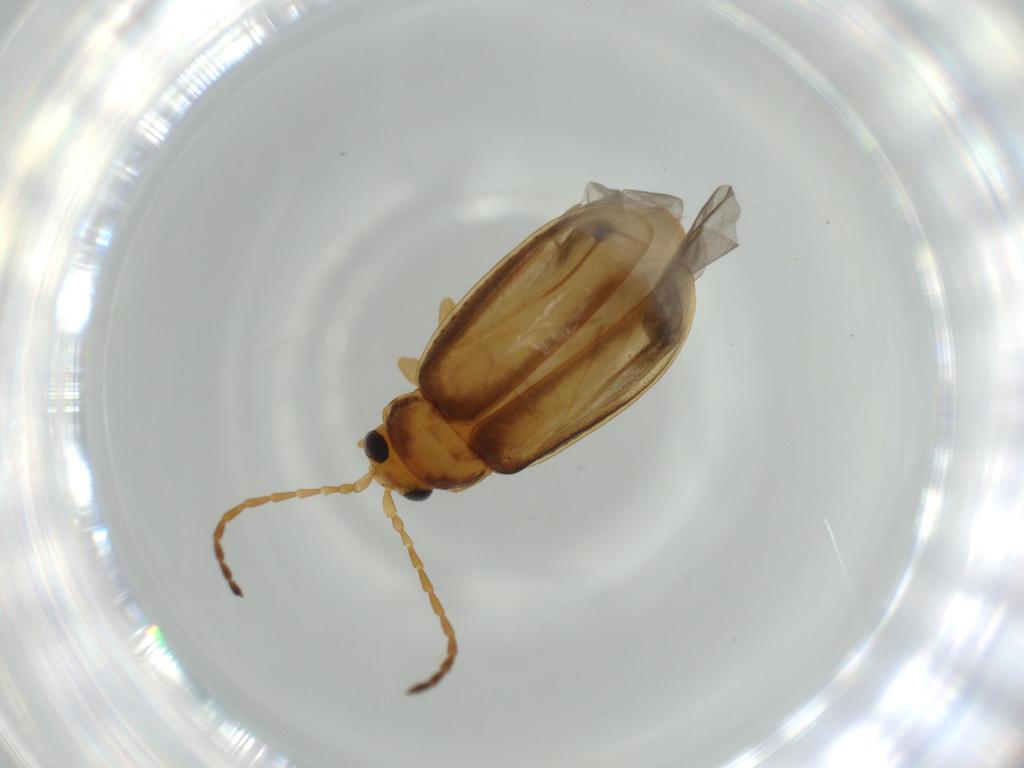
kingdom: Animalia
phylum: Arthropoda
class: Insecta
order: Coleoptera
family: Chrysomelidae
